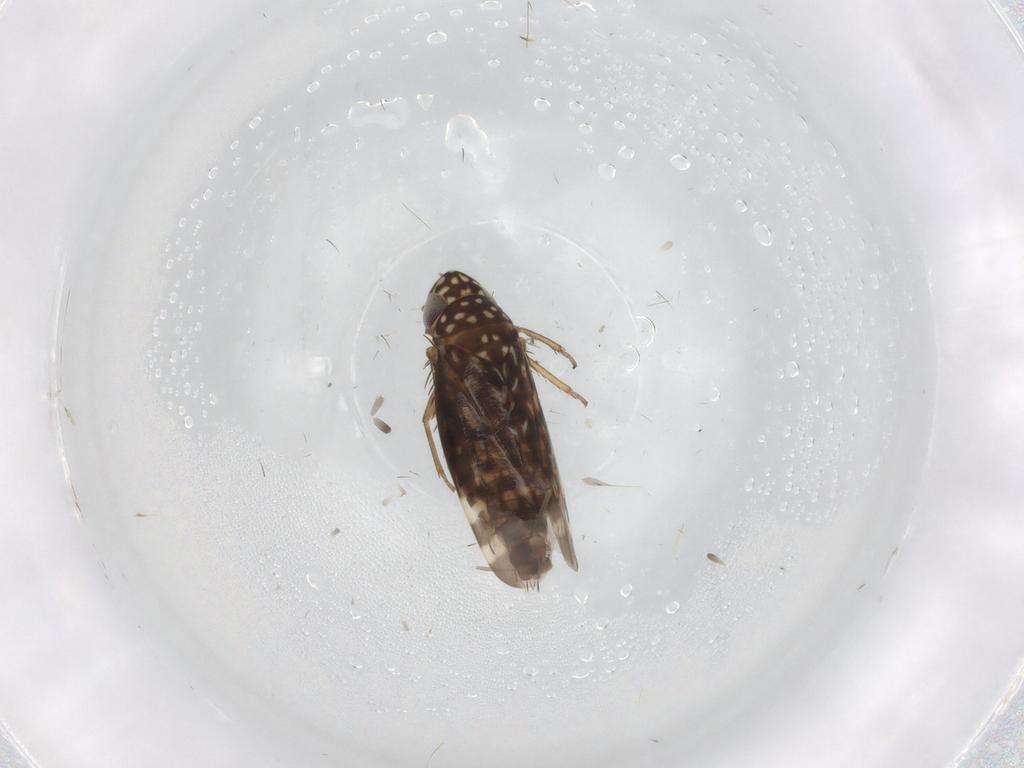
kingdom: Animalia
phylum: Arthropoda
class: Insecta
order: Hemiptera
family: Cicadellidae
